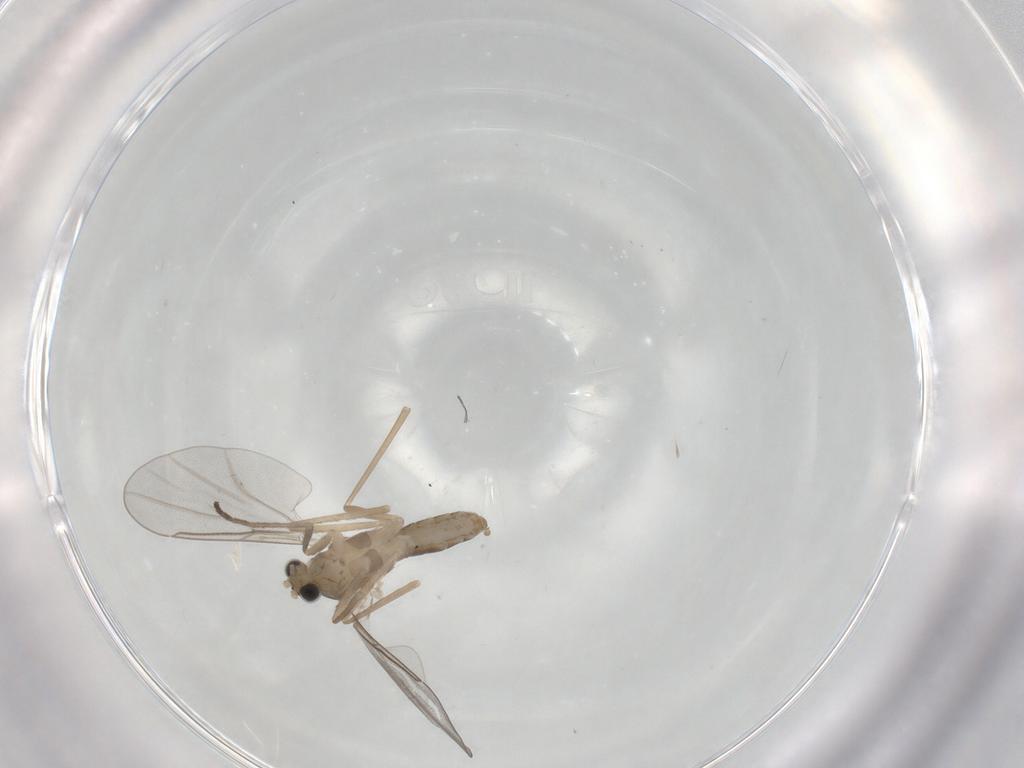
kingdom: Animalia
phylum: Arthropoda
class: Insecta
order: Diptera
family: Cecidomyiidae
